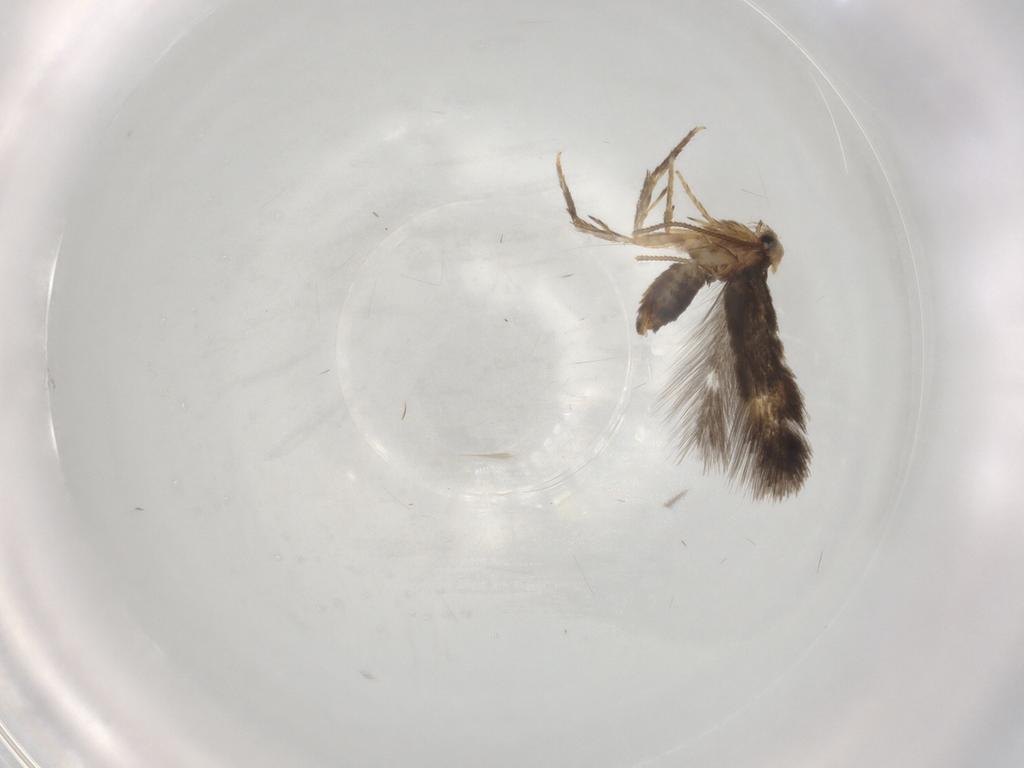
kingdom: Animalia
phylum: Arthropoda
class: Insecta
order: Lepidoptera
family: Nepticulidae
